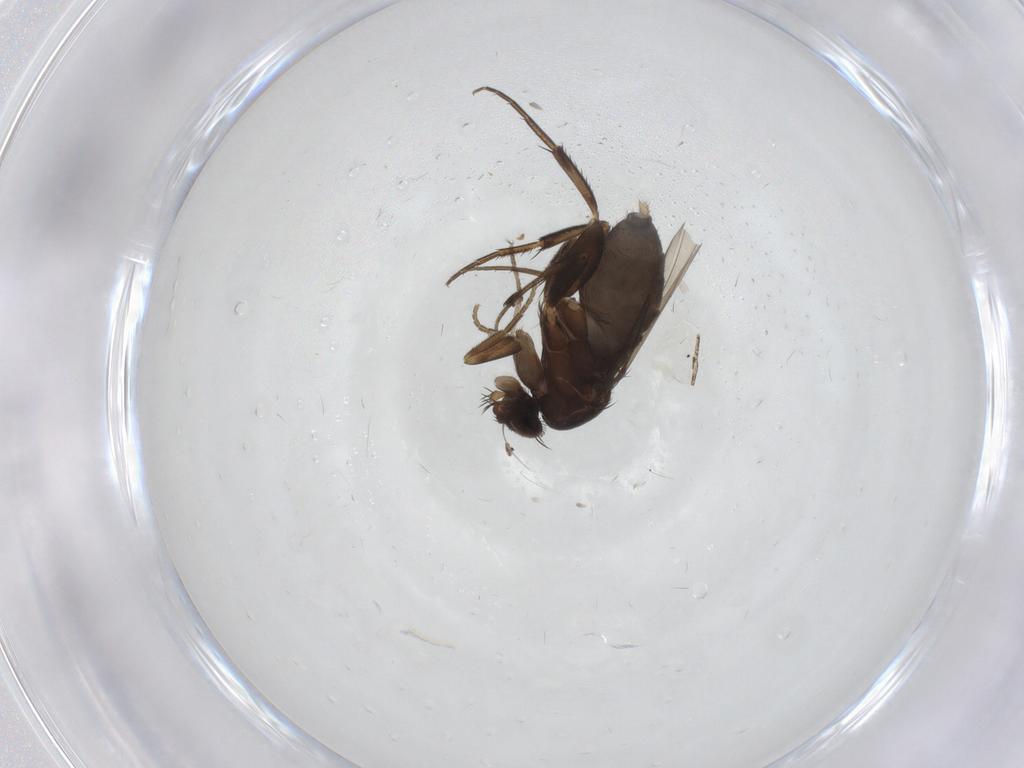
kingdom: Animalia
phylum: Arthropoda
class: Insecta
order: Diptera
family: Phoridae
